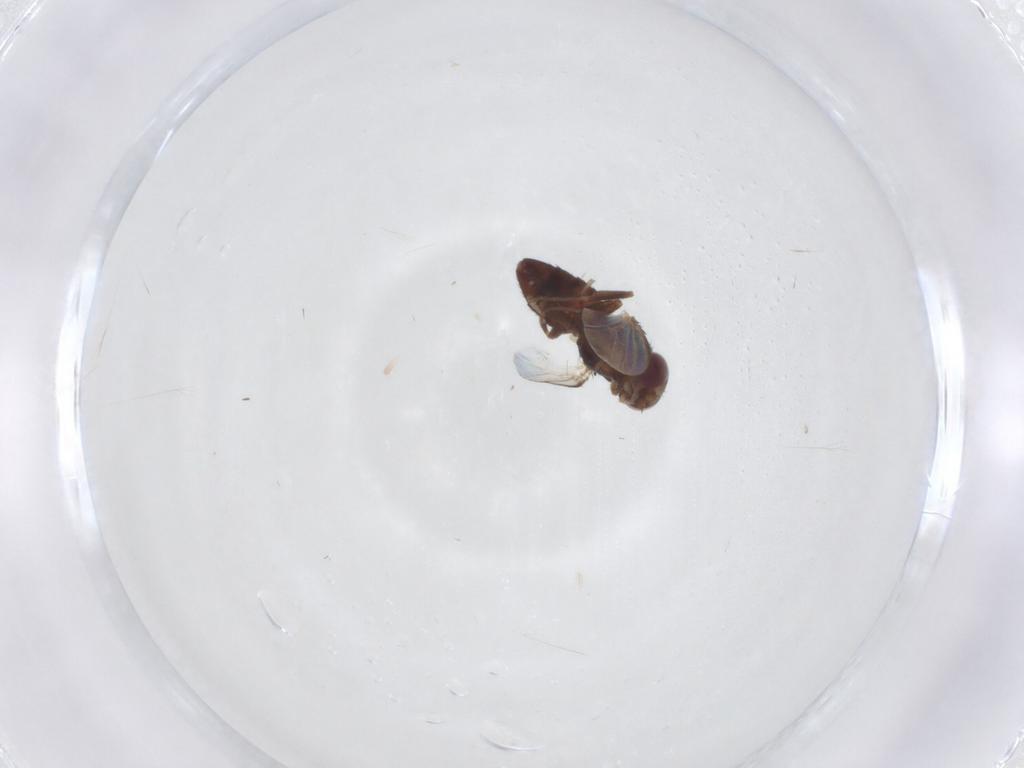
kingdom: Animalia
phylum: Arthropoda
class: Insecta
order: Diptera
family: Chloropidae
